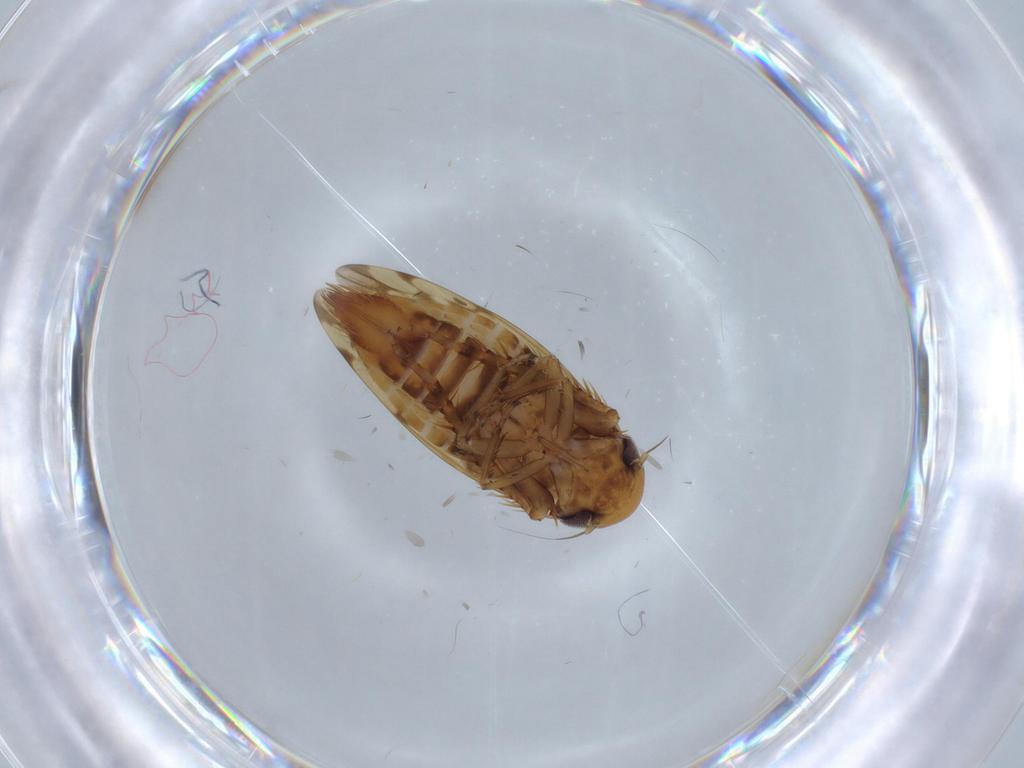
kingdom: Animalia
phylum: Arthropoda
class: Insecta
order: Hemiptera
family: Cicadellidae
